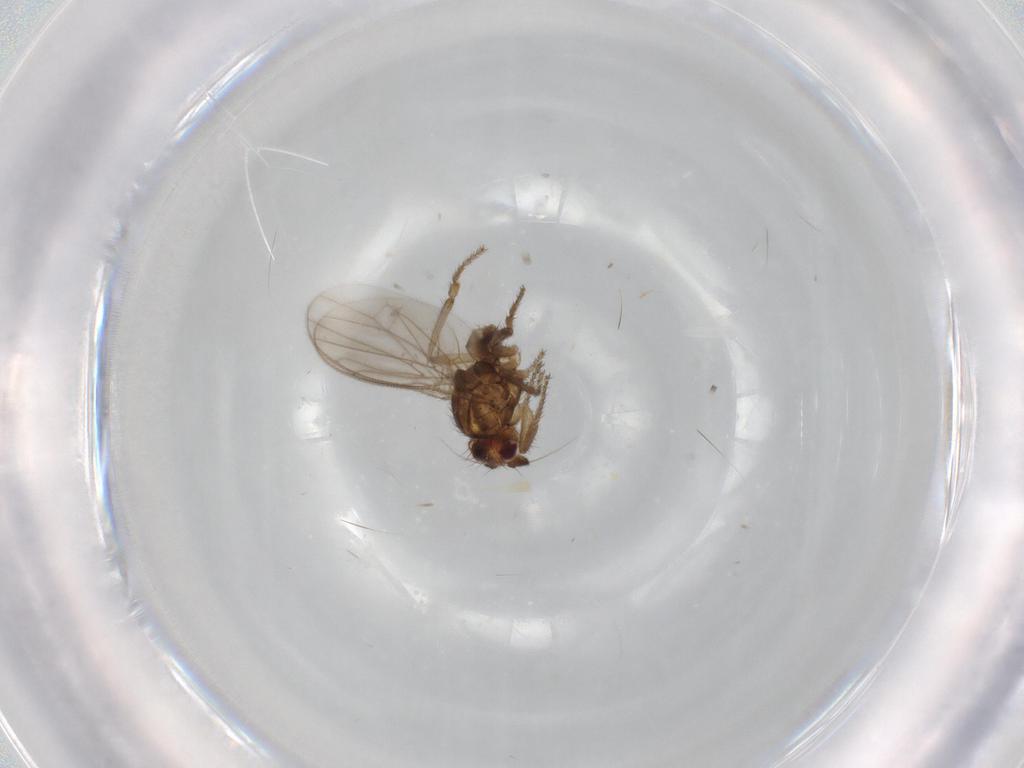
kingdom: Animalia
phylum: Arthropoda
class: Insecta
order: Diptera
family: Sphaeroceridae
